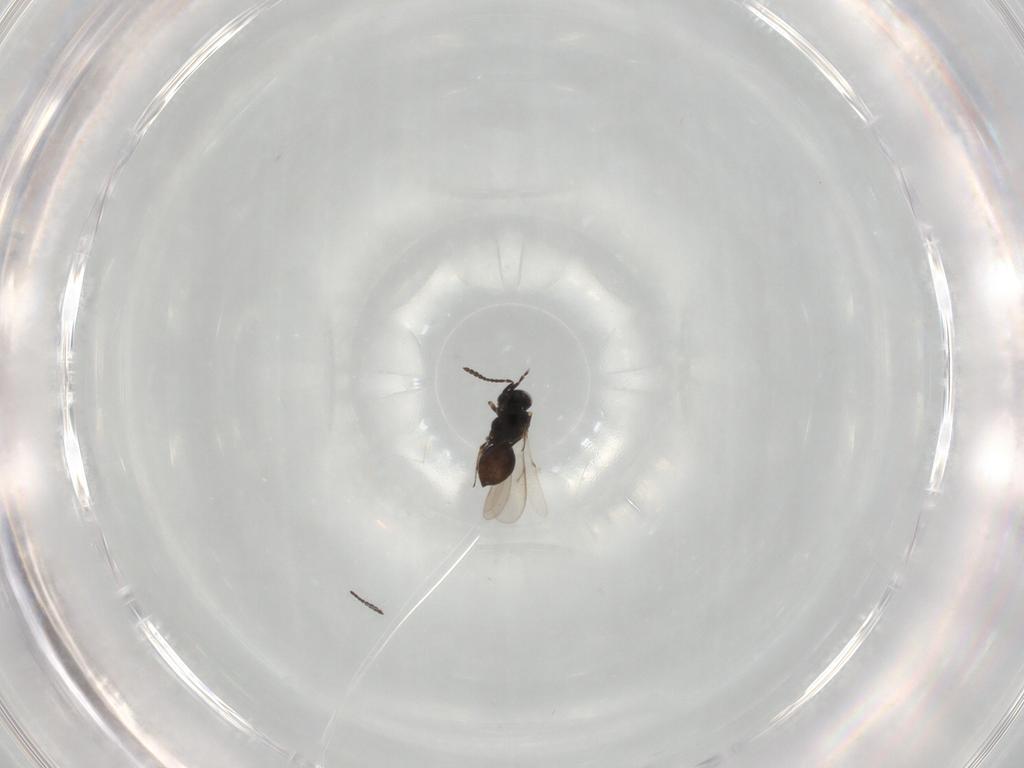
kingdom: Animalia
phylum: Arthropoda
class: Insecta
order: Hymenoptera
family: Scelionidae
